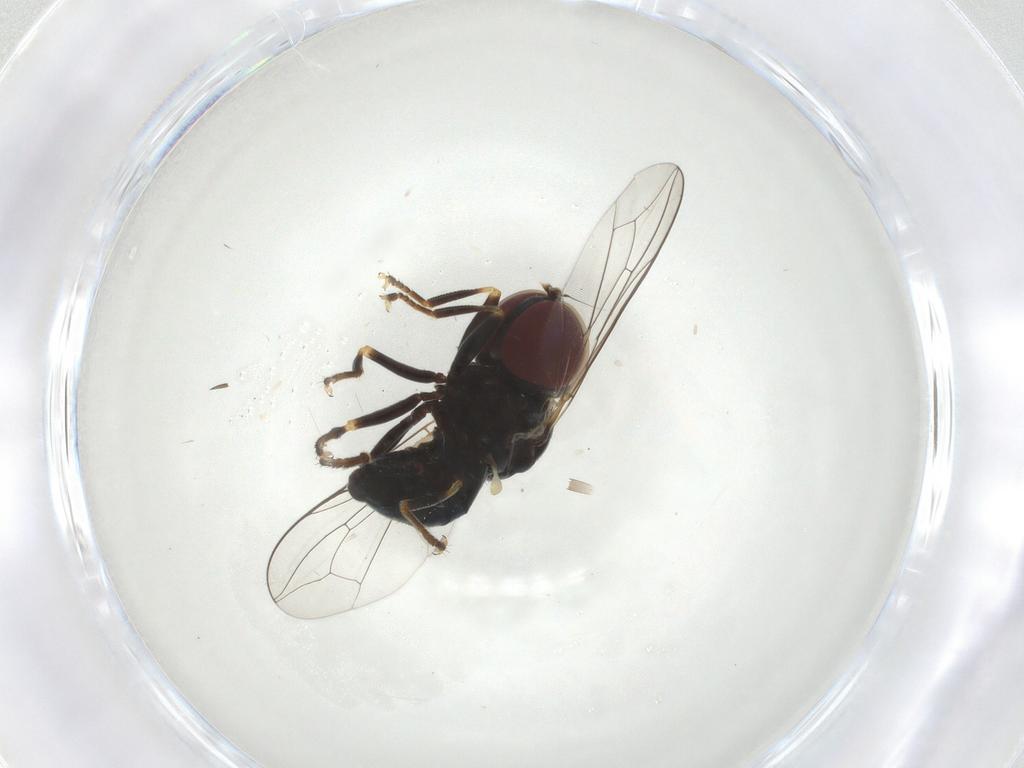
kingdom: Animalia
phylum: Arthropoda
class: Insecta
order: Diptera
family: Pipunculidae
